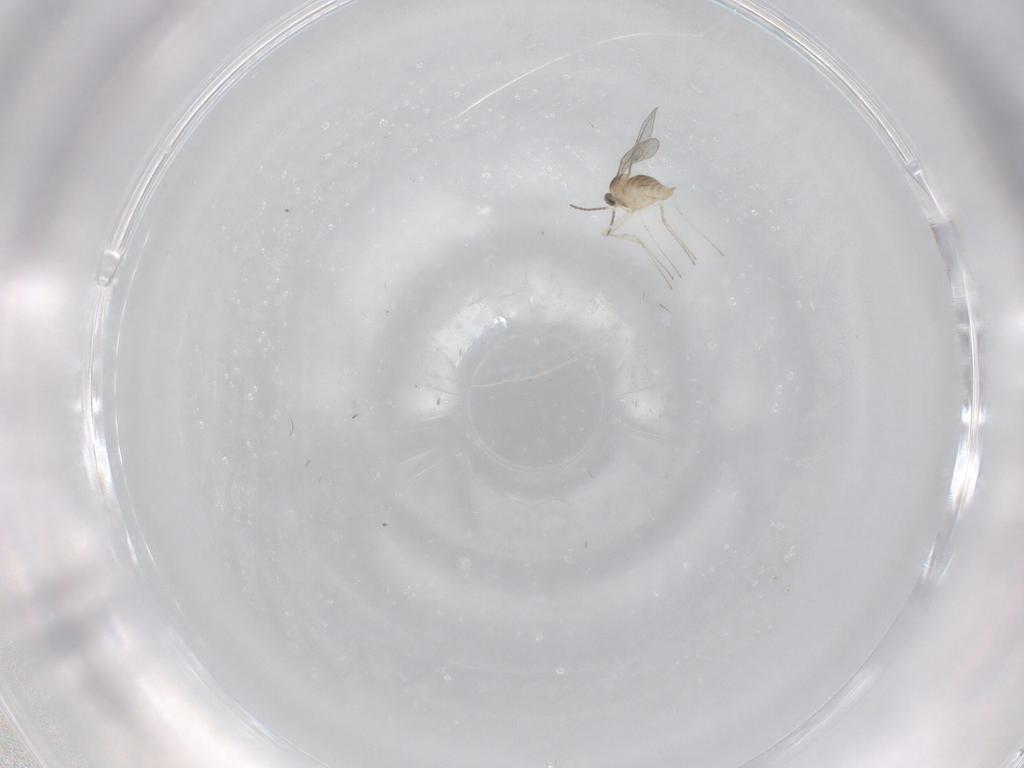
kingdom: Animalia
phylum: Arthropoda
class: Insecta
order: Diptera
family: Cecidomyiidae
